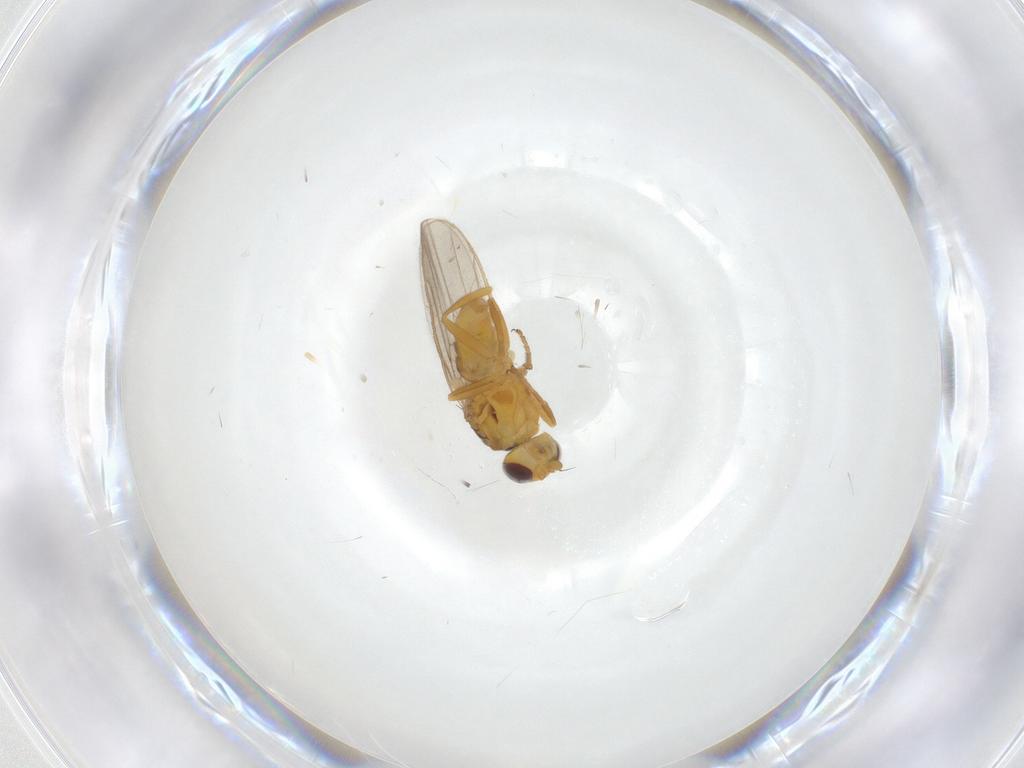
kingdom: Animalia
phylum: Arthropoda
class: Insecta
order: Diptera
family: Chloropidae
